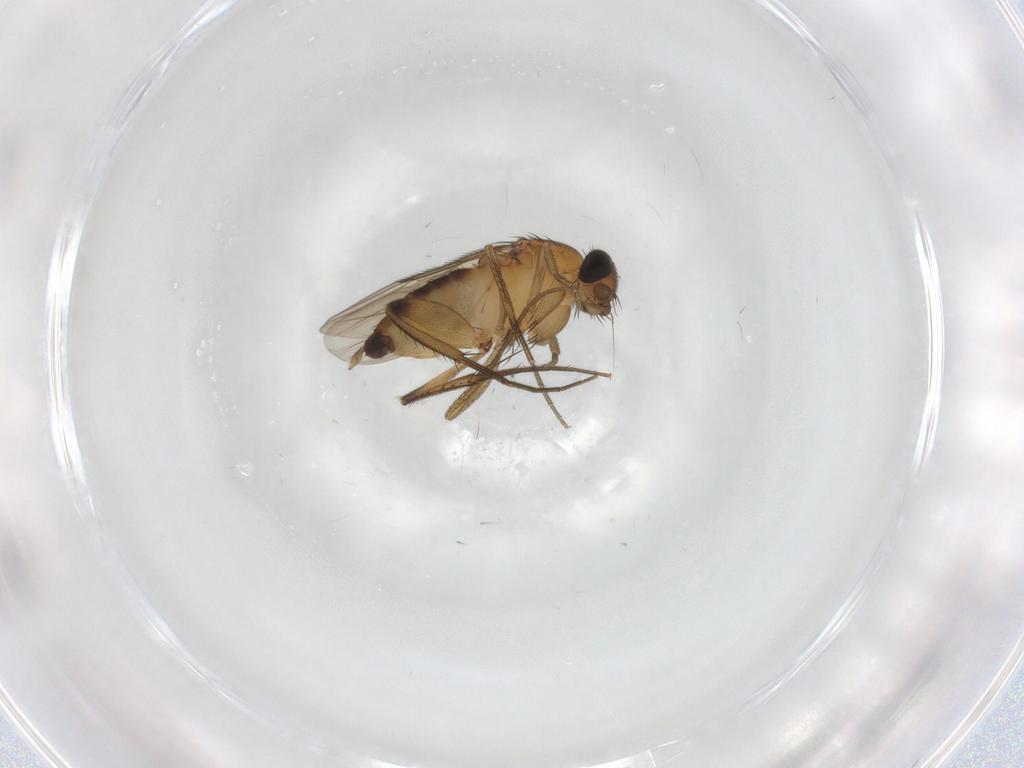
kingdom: Animalia
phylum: Arthropoda
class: Insecta
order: Diptera
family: Phoridae
